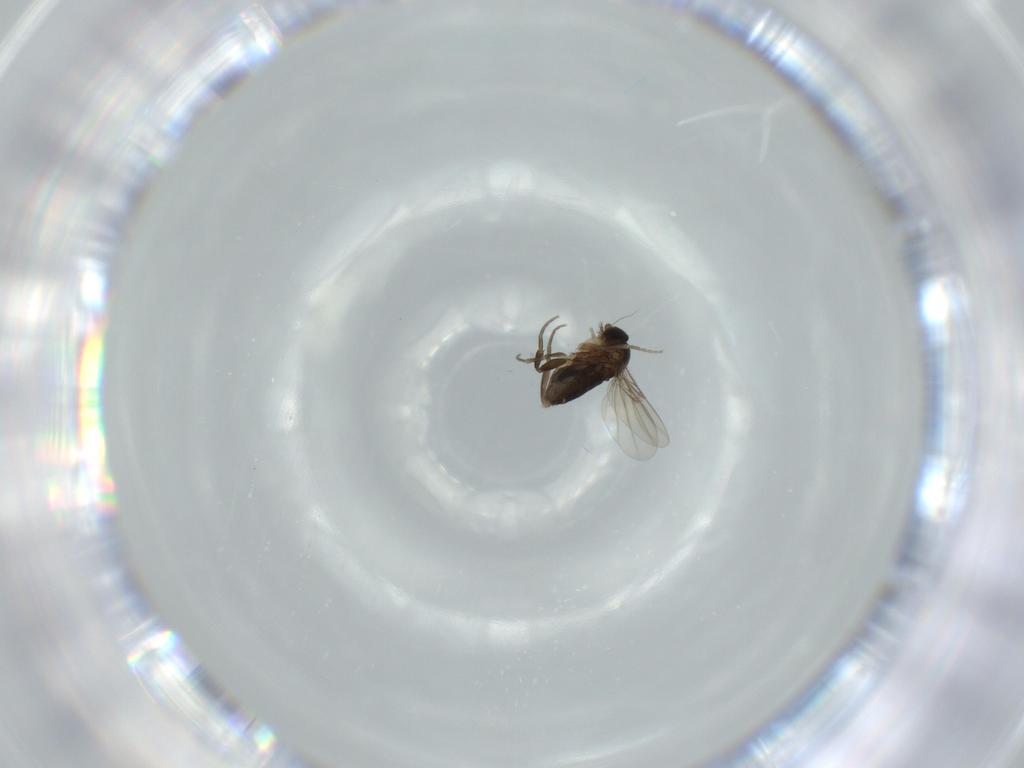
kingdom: Animalia
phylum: Arthropoda
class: Insecta
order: Diptera
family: Phoridae
